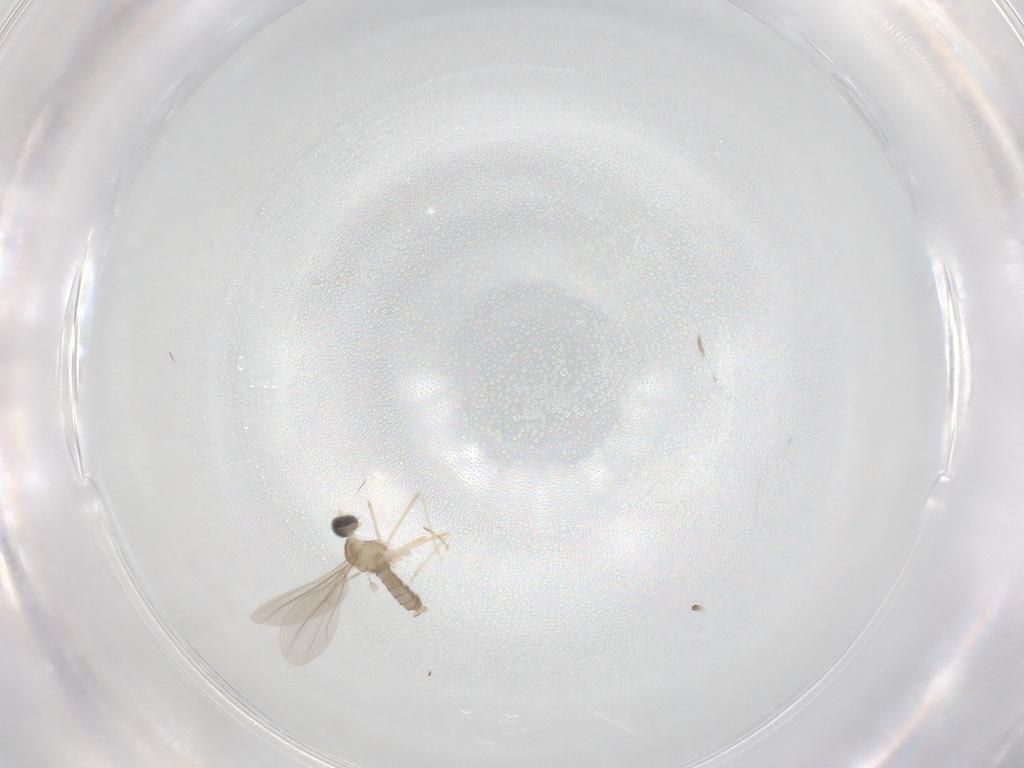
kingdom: Animalia
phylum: Arthropoda
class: Insecta
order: Diptera
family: Cecidomyiidae
